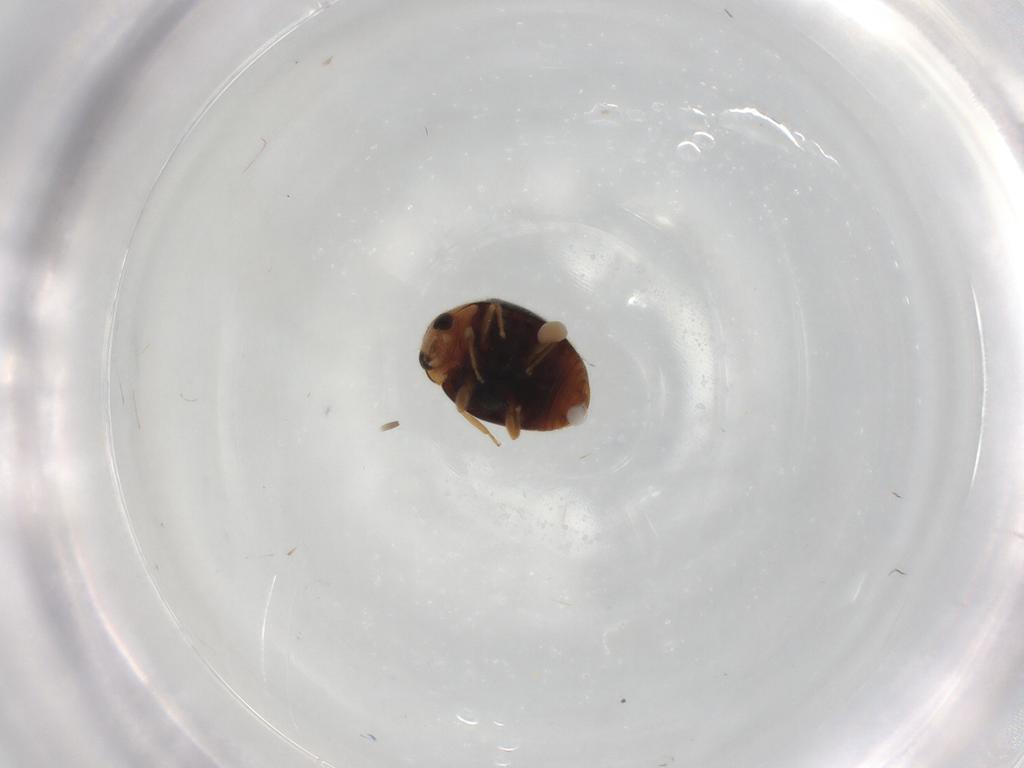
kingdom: Animalia
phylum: Arthropoda
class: Insecta
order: Coleoptera
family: Coccinellidae
